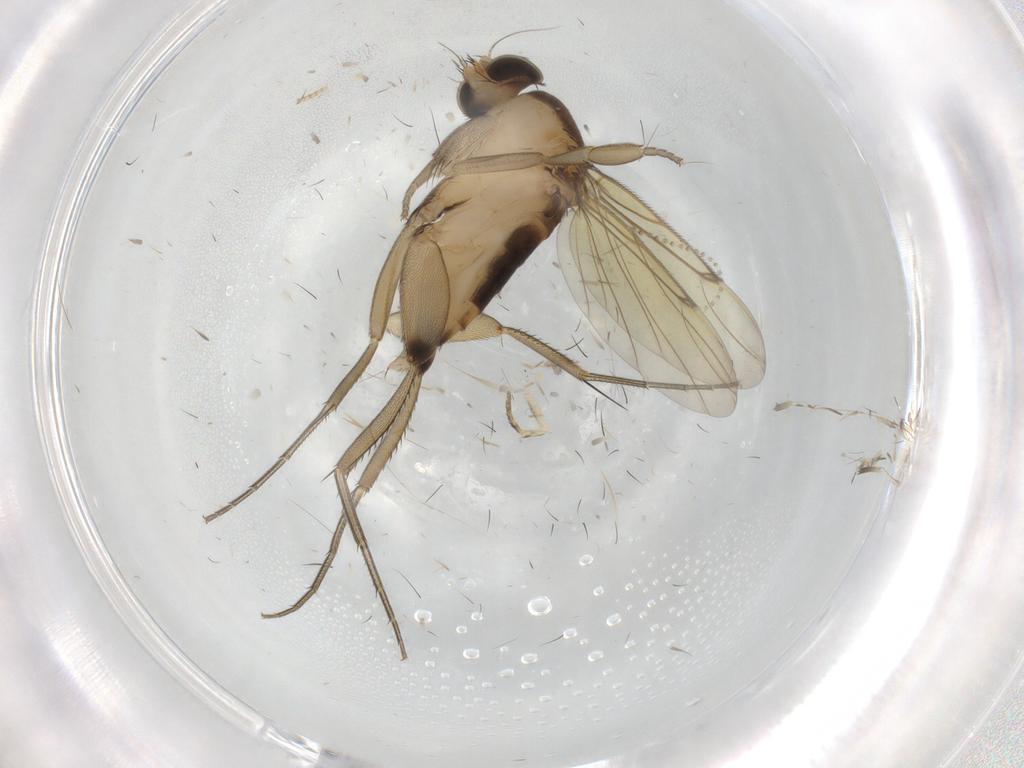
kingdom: Animalia
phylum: Arthropoda
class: Insecta
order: Diptera
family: Phoridae
